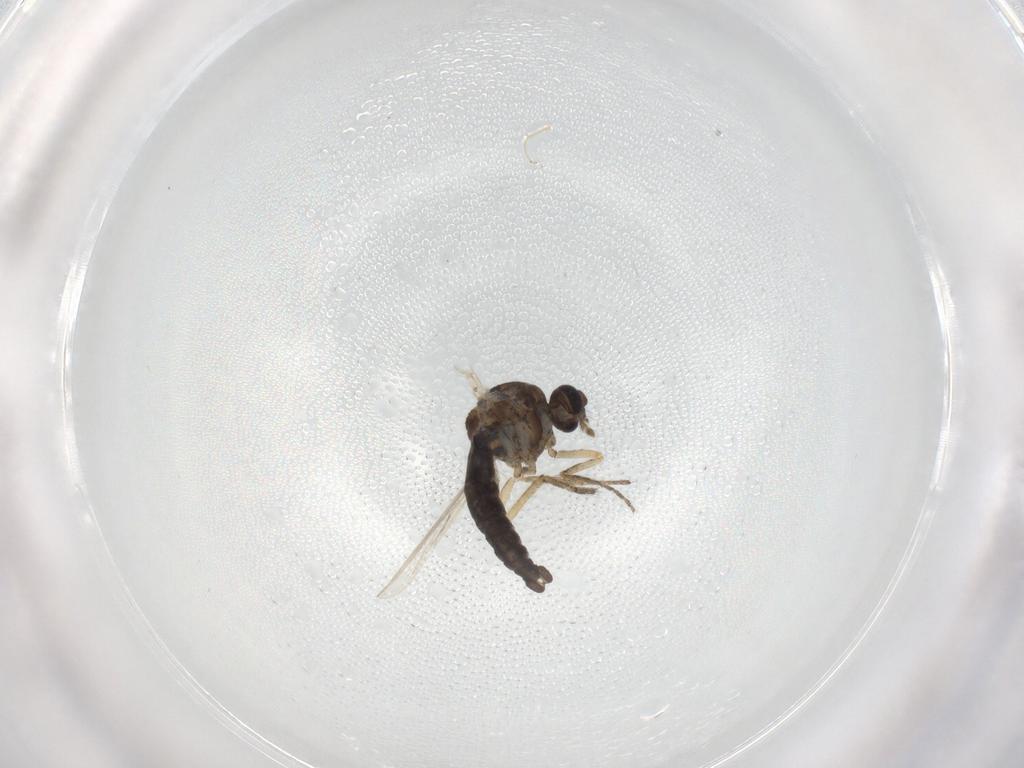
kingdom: Animalia
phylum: Arthropoda
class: Insecta
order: Diptera
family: Ceratopogonidae
